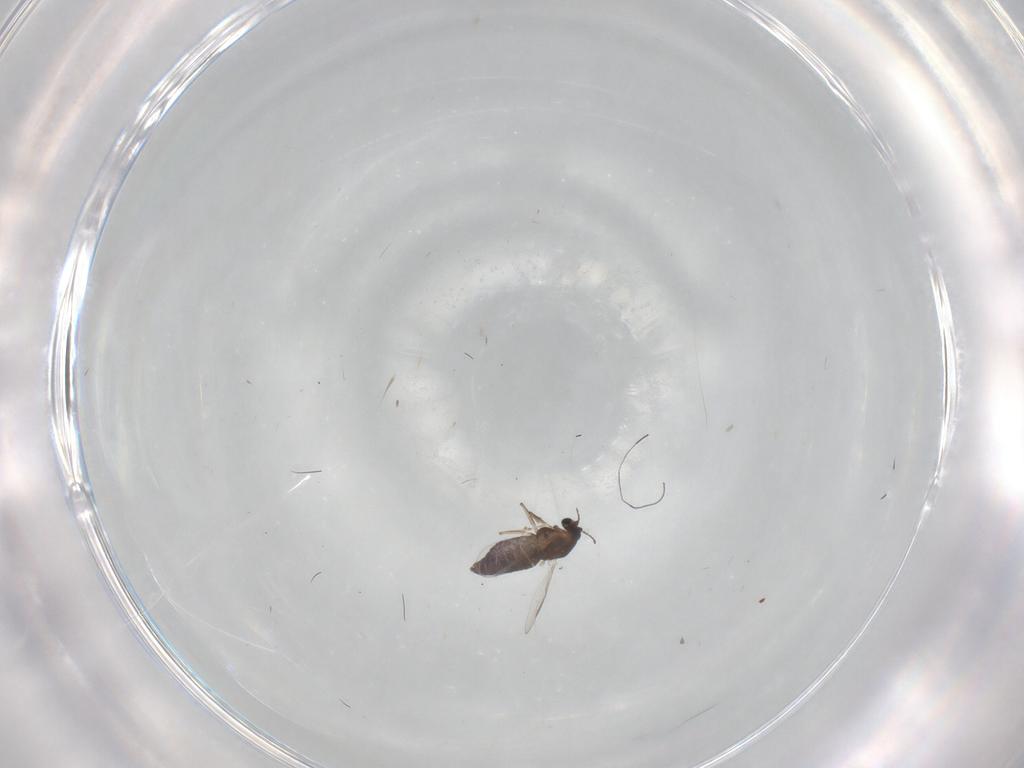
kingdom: Animalia
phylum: Arthropoda
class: Insecta
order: Diptera
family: Chironomidae
